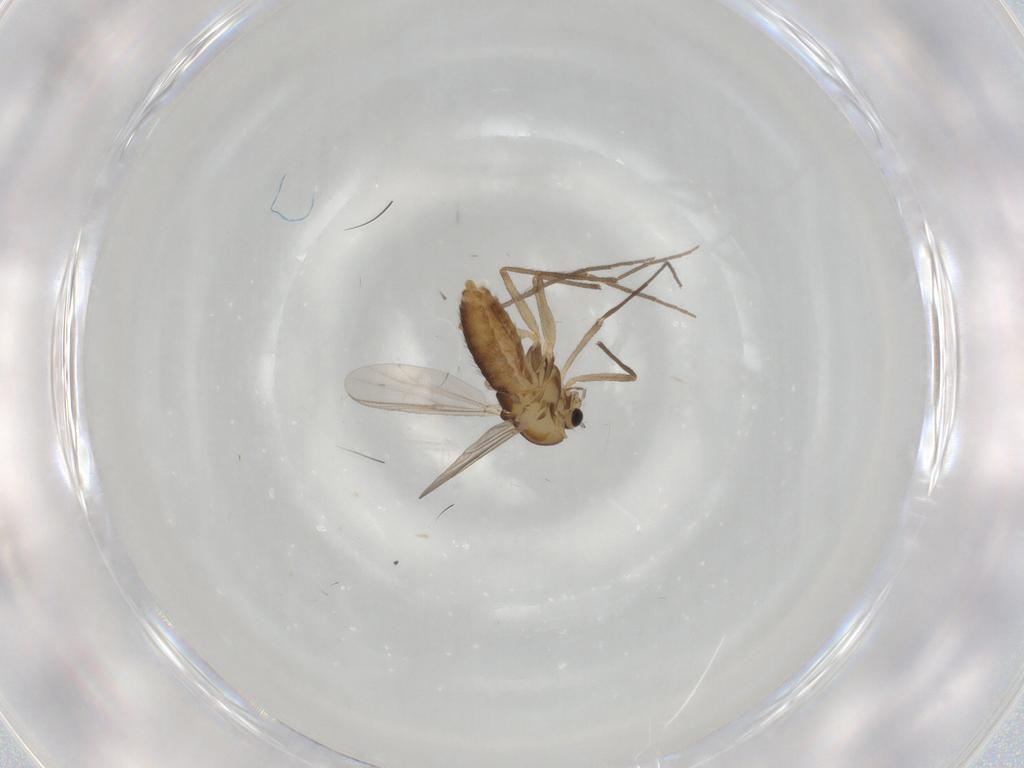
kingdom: Animalia
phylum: Arthropoda
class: Insecta
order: Diptera
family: Chironomidae
